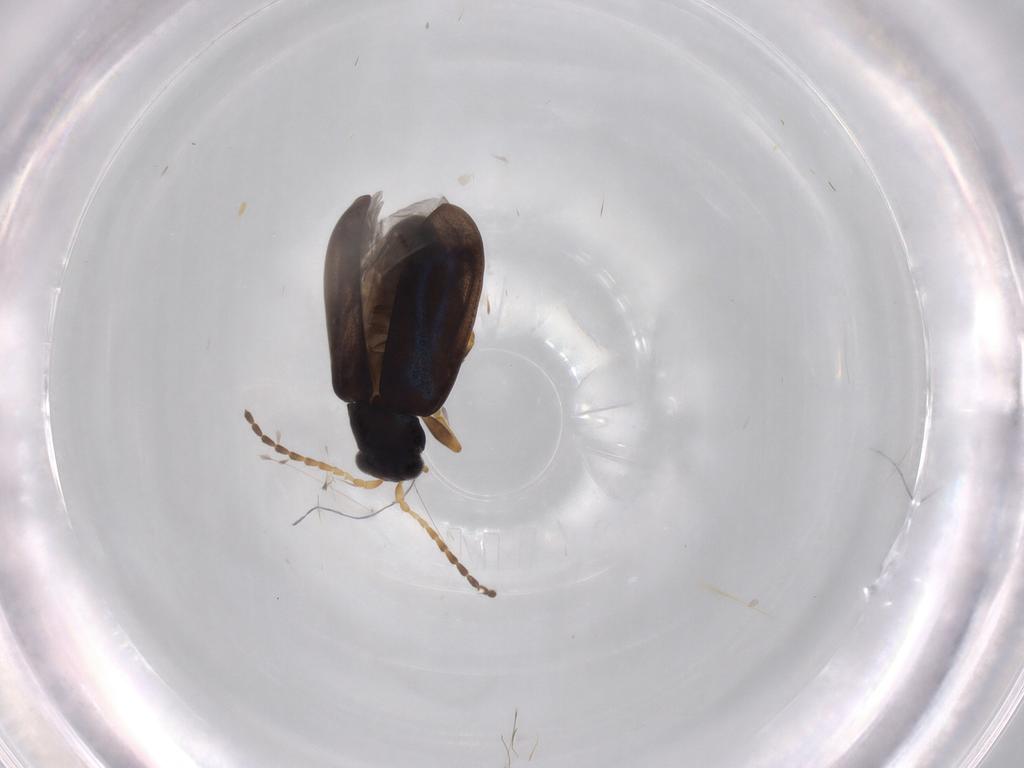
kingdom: Animalia
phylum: Arthropoda
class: Insecta
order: Coleoptera
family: Chrysomelidae
